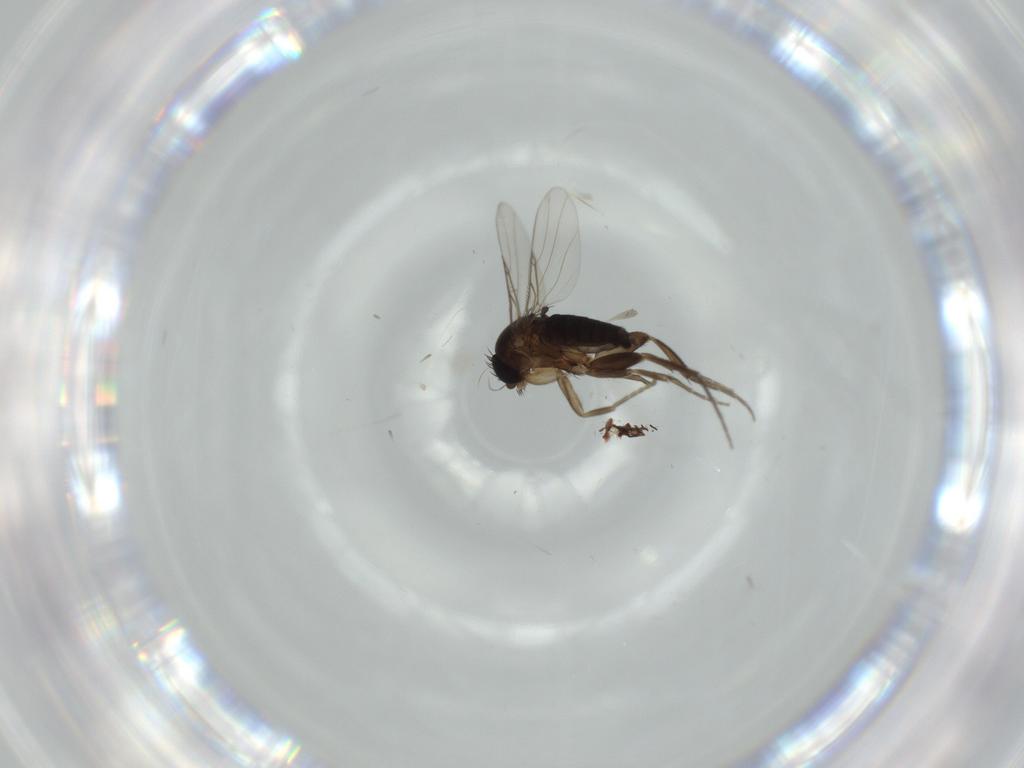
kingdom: Animalia
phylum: Arthropoda
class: Insecta
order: Diptera
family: Phoridae
